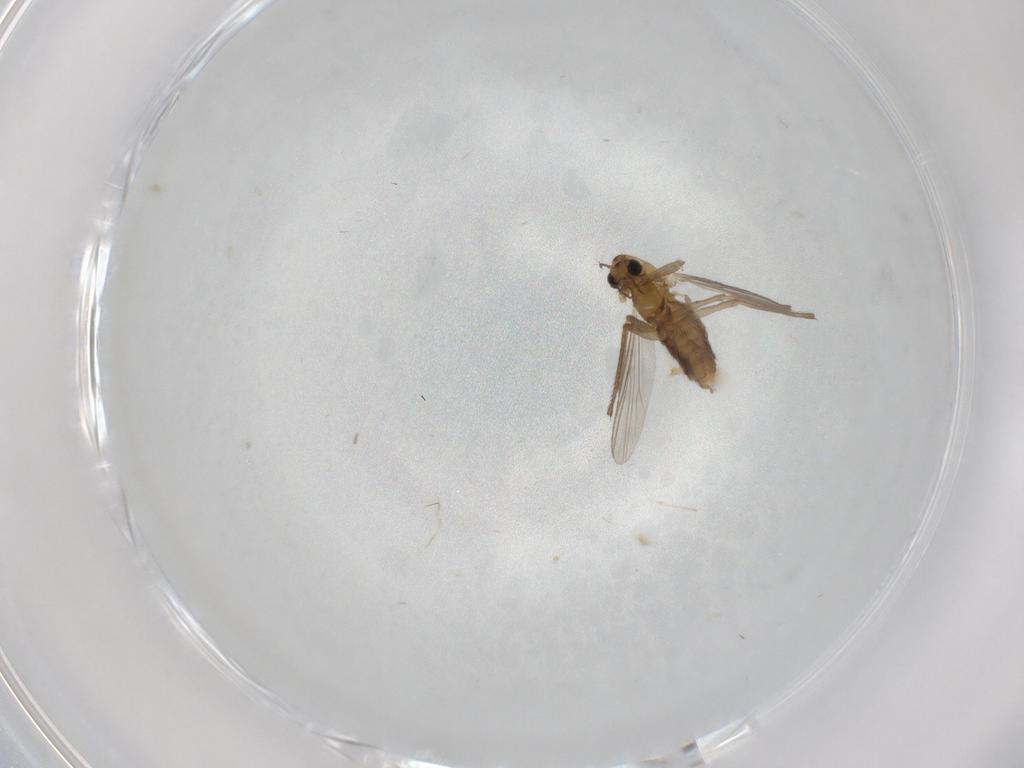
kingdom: Animalia
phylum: Arthropoda
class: Insecta
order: Diptera
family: Chironomidae
